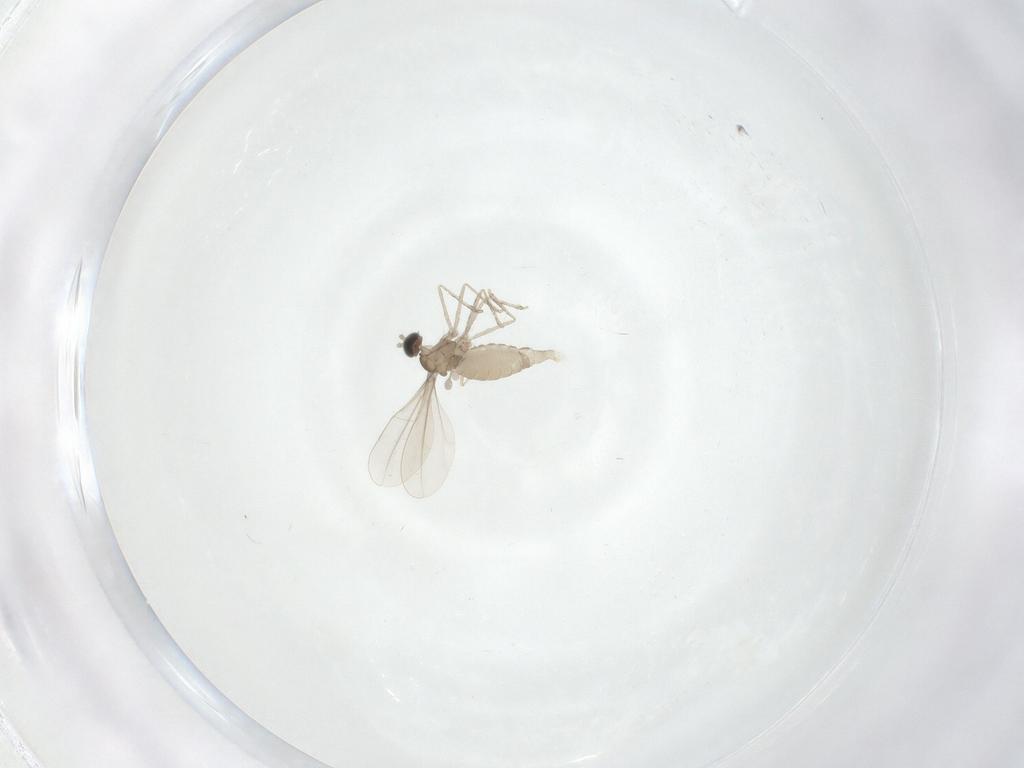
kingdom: Animalia
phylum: Arthropoda
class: Insecta
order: Diptera
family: Cecidomyiidae
